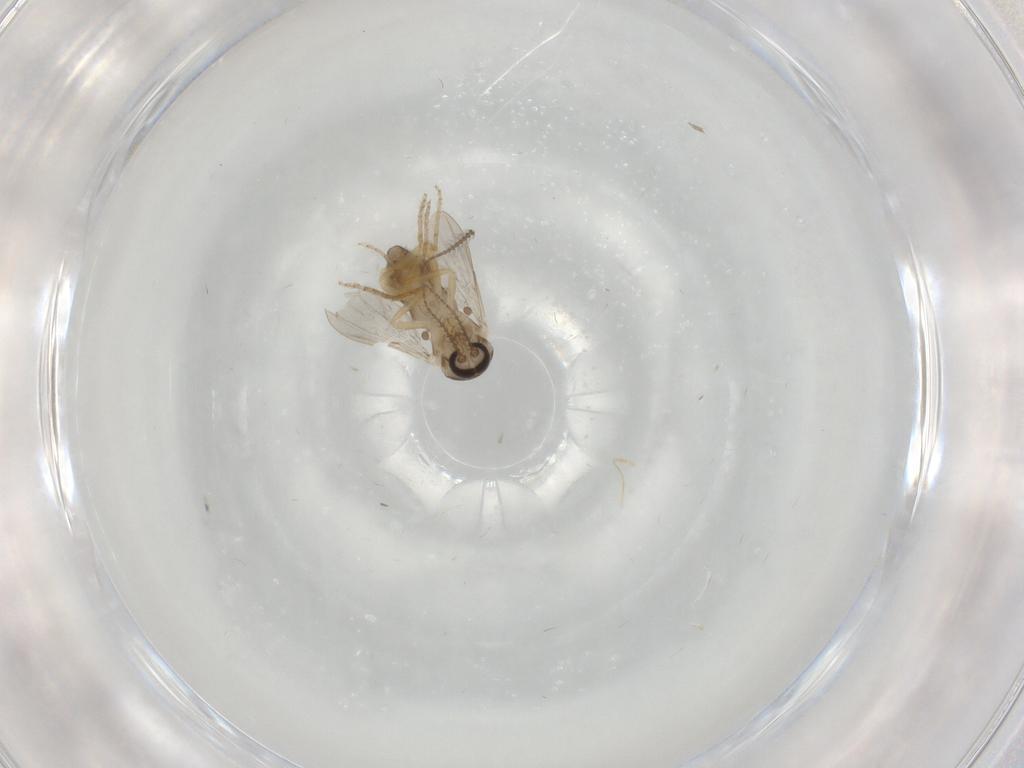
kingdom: Animalia
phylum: Arthropoda
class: Insecta
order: Diptera
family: Ceratopogonidae
